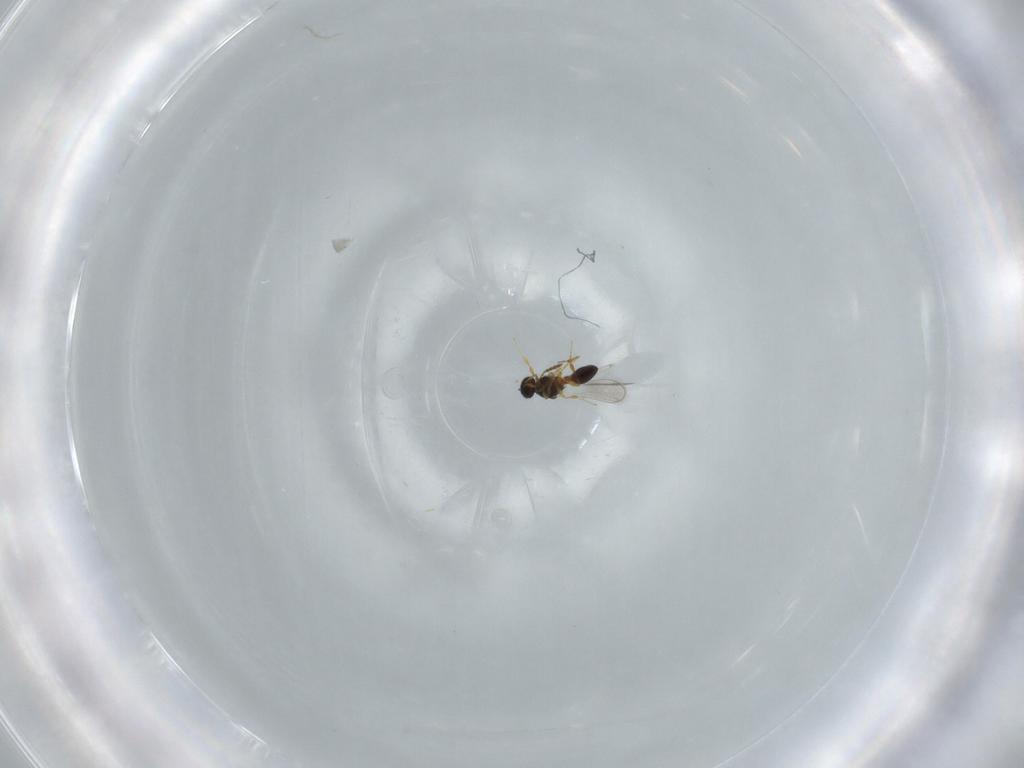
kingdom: Animalia
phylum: Arthropoda
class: Insecta
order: Hymenoptera
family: Platygastridae
